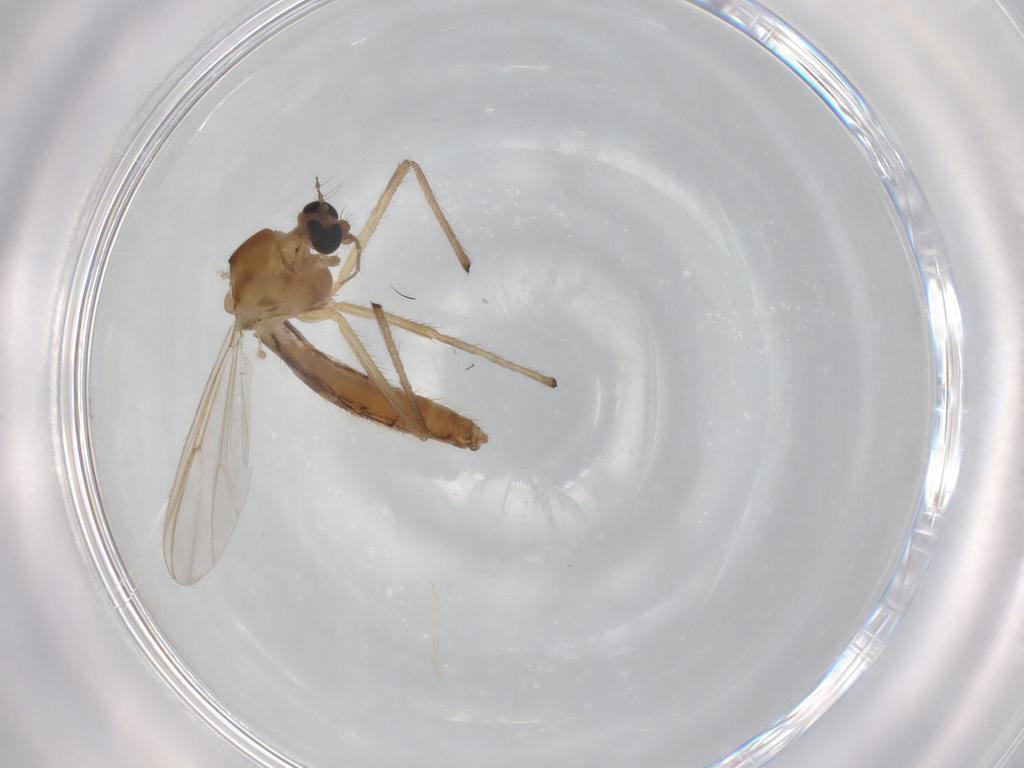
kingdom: Animalia
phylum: Arthropoda
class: Insecta
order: Diptera
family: Chironomidae
